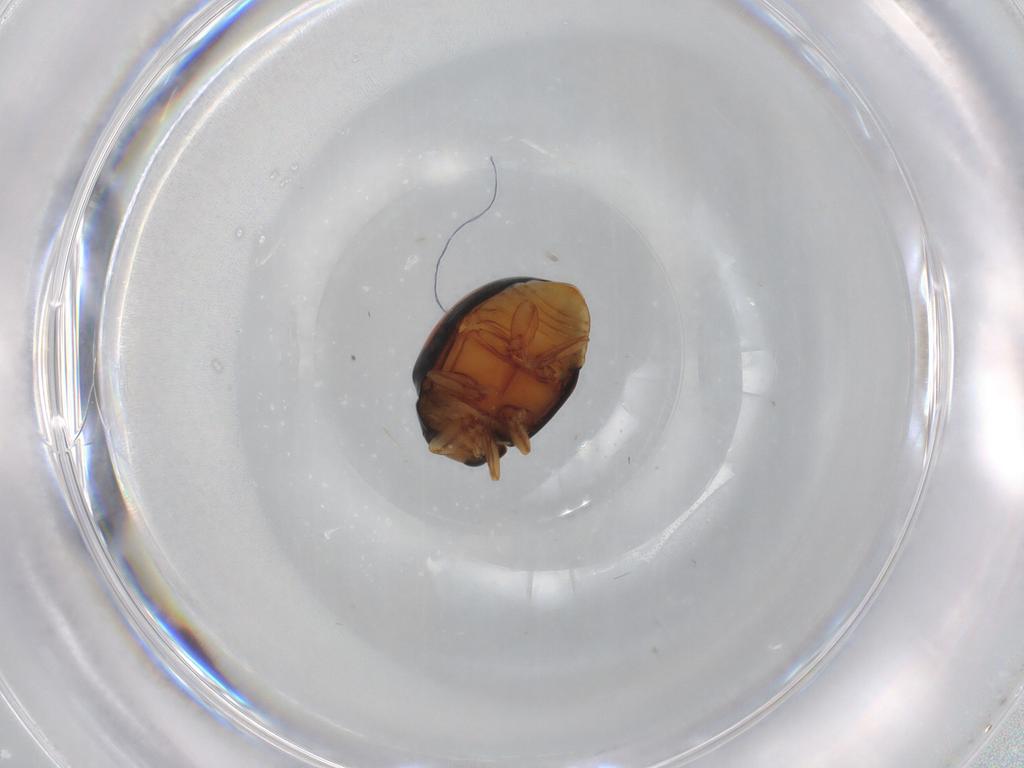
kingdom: Animalia
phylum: Arthropoda
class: Insecta
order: Coleoptera
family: Coccinellidae
